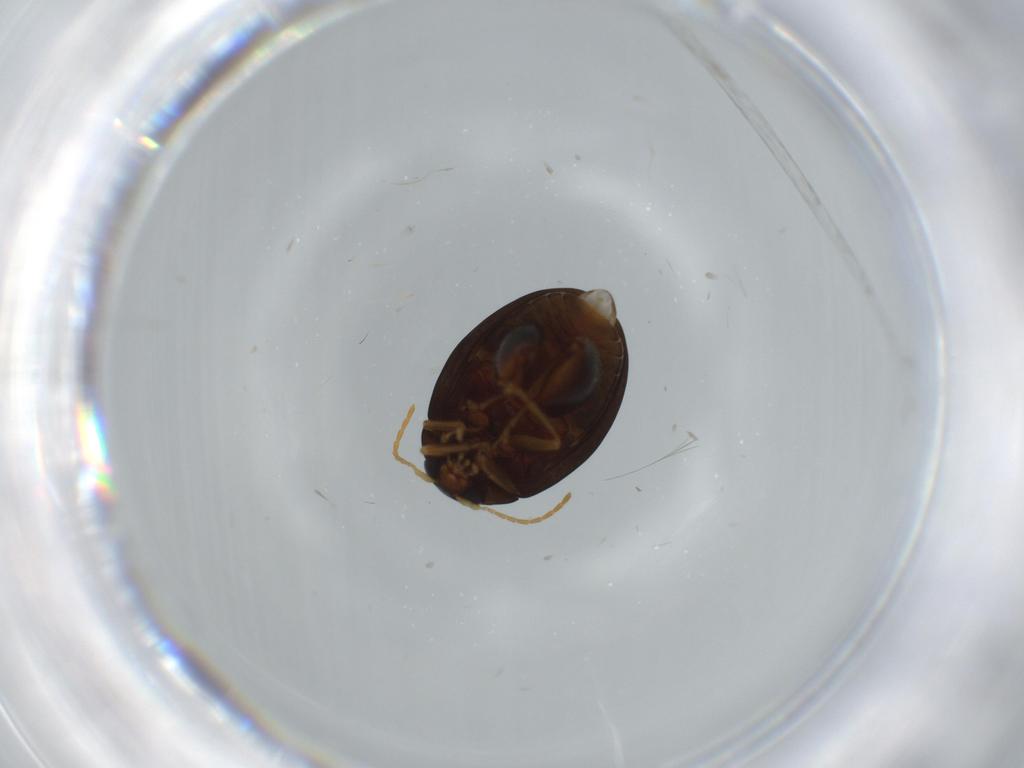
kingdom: Animalia
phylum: Arthropoda
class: Insecta
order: Coleoptera
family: Chrysomelidae
